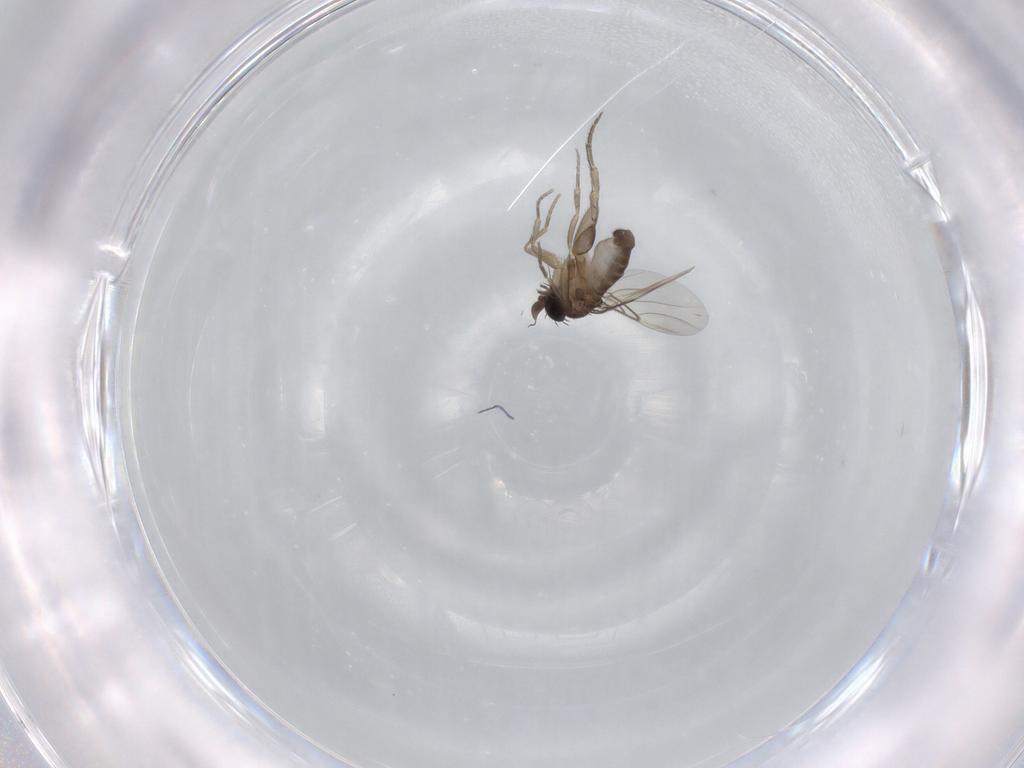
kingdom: Animalia
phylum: Arthropoda
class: Insecta
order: Diptera
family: Phoridae
